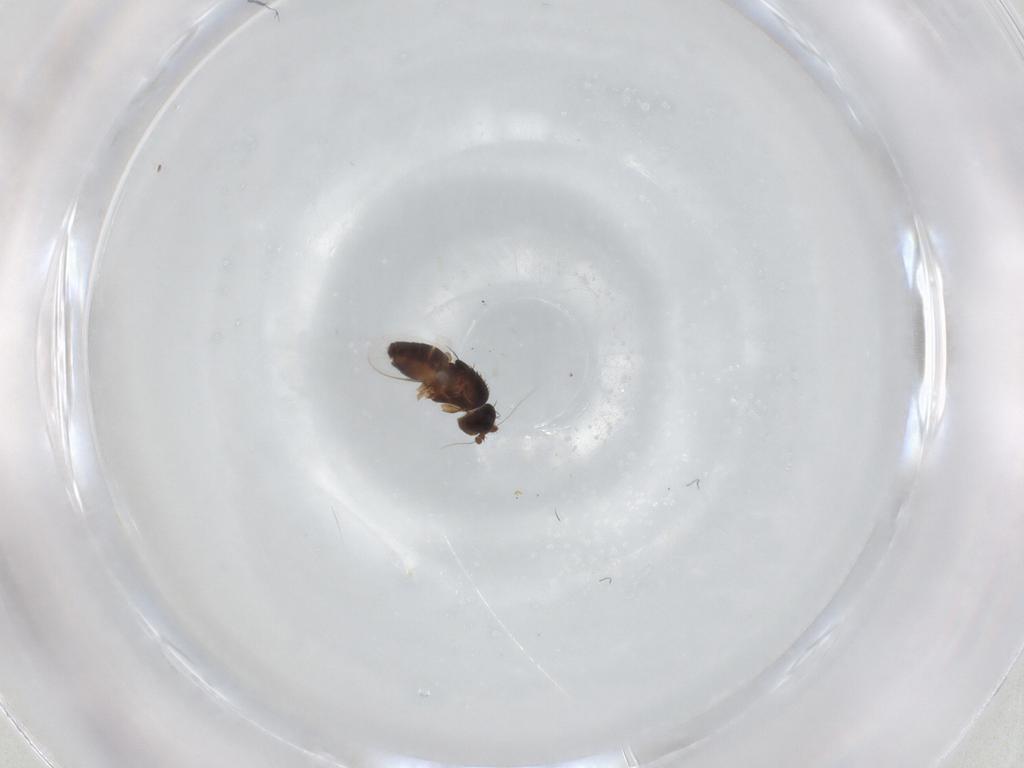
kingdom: Animalia
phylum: Arthropoda
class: Insecta
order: Diptera
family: Sphaeroceridae
